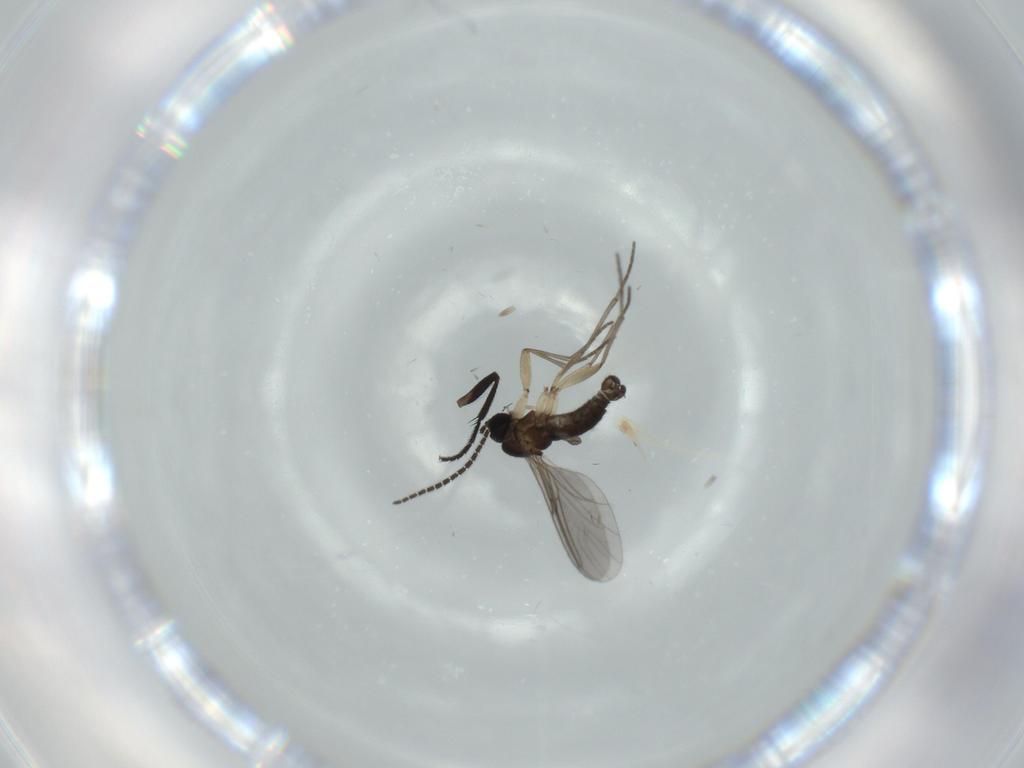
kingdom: Animalia
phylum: Arthropoda
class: Insecta
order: Diptera
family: Sciaridae
